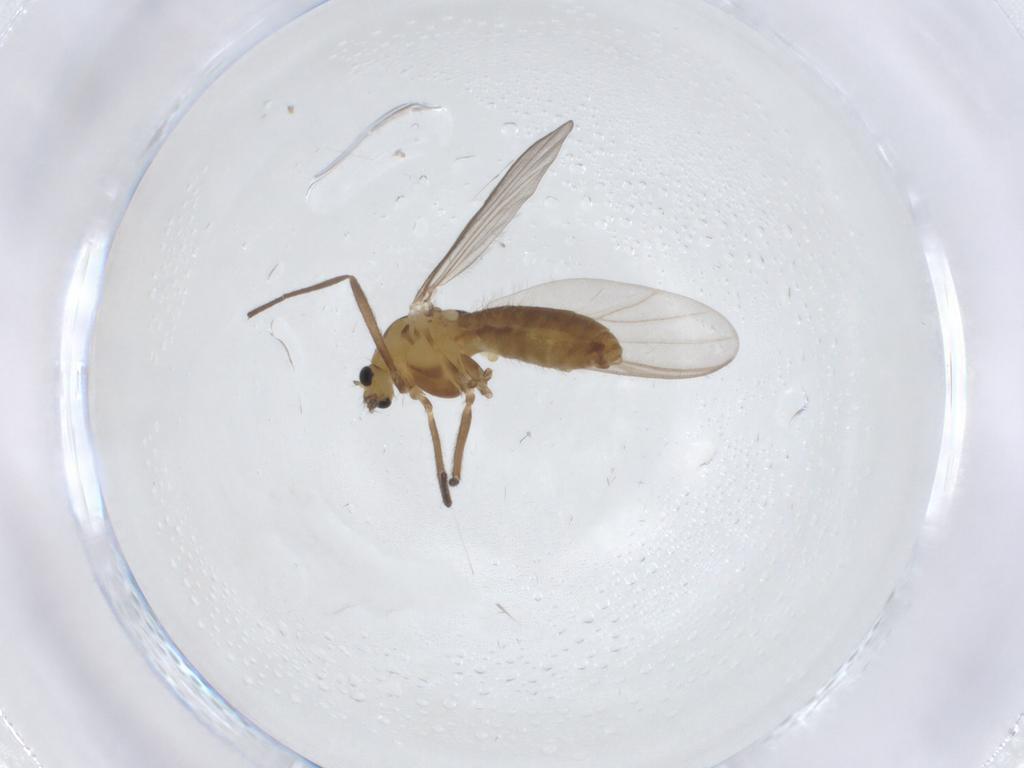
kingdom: Animalia
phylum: Arthropoda
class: Insecta
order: Diptera
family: Chironomidae
